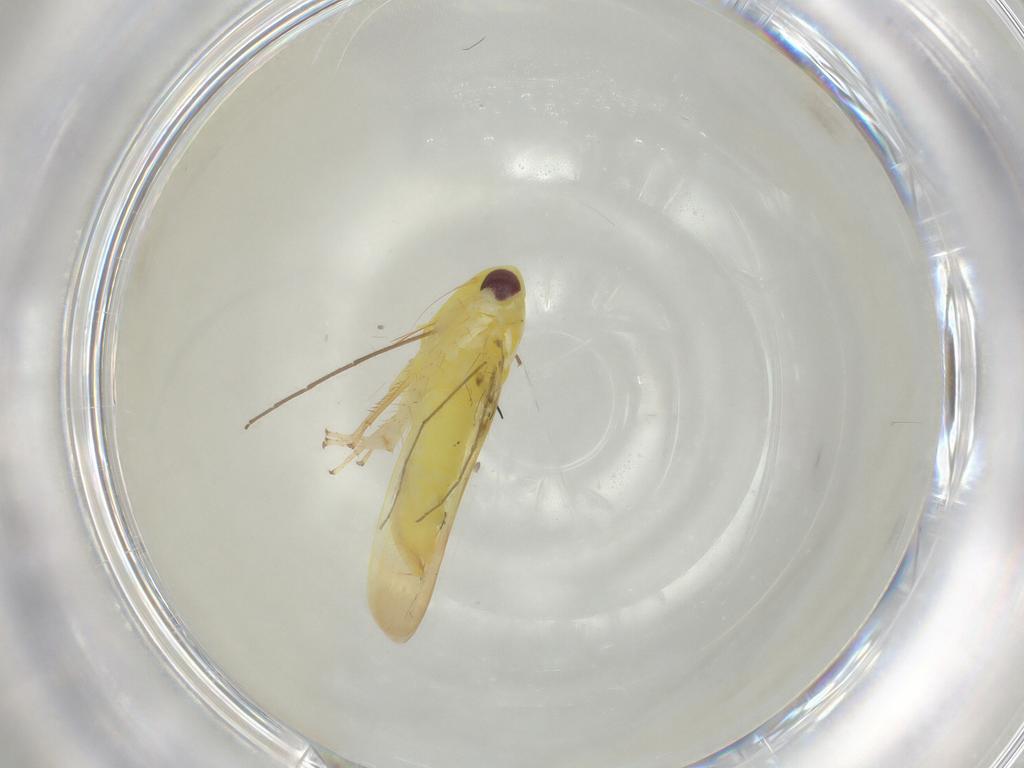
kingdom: Animalia
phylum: Arthropoda
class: Insecta
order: Hemiptera
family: Cicadellidae
